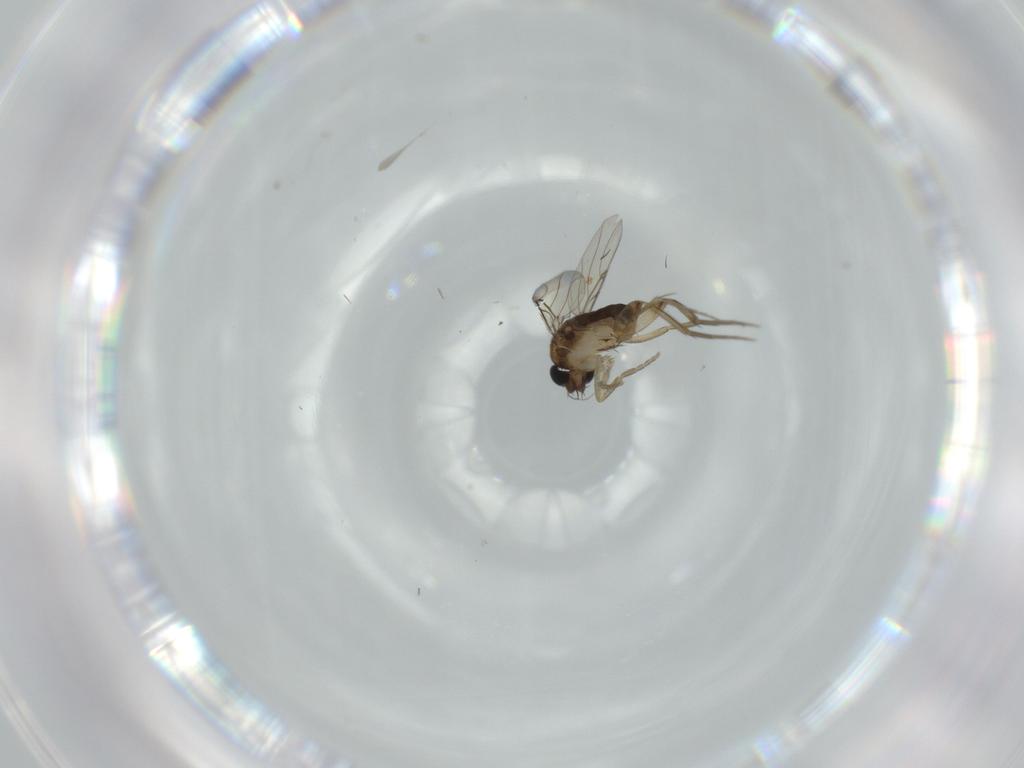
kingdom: Animalia
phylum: Arthropoda
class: Insecta
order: Diptera
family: Phoridae
